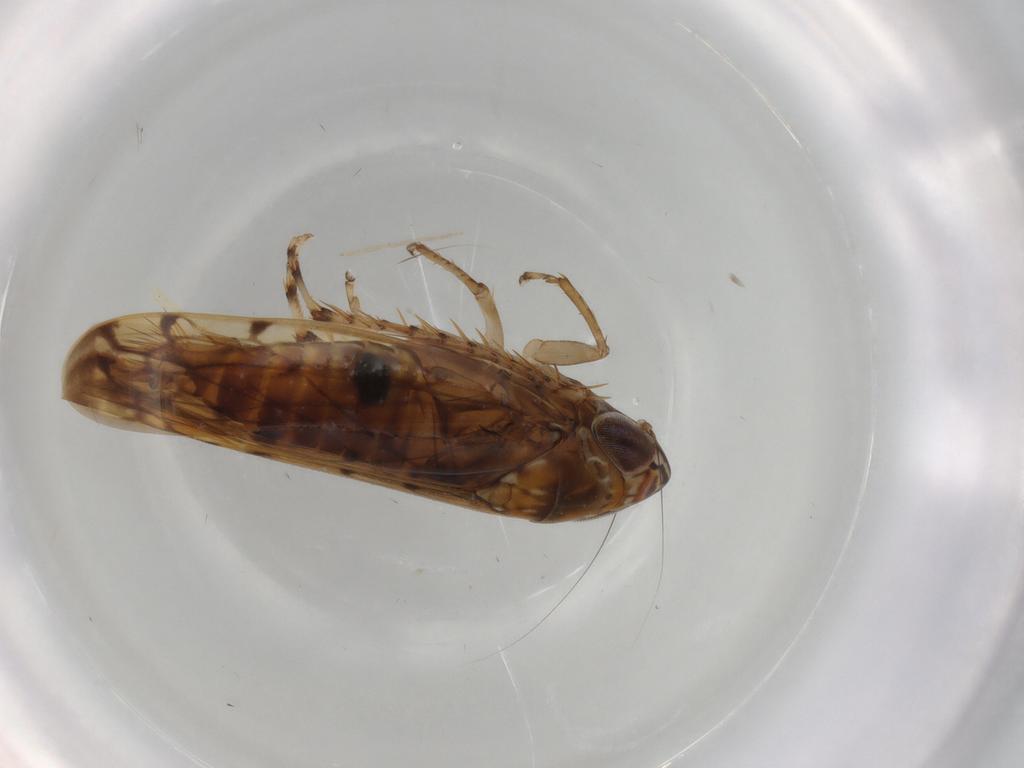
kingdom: Animalia
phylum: Arthropoda
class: Insecta
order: Hemiptera
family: Cicadellidae
